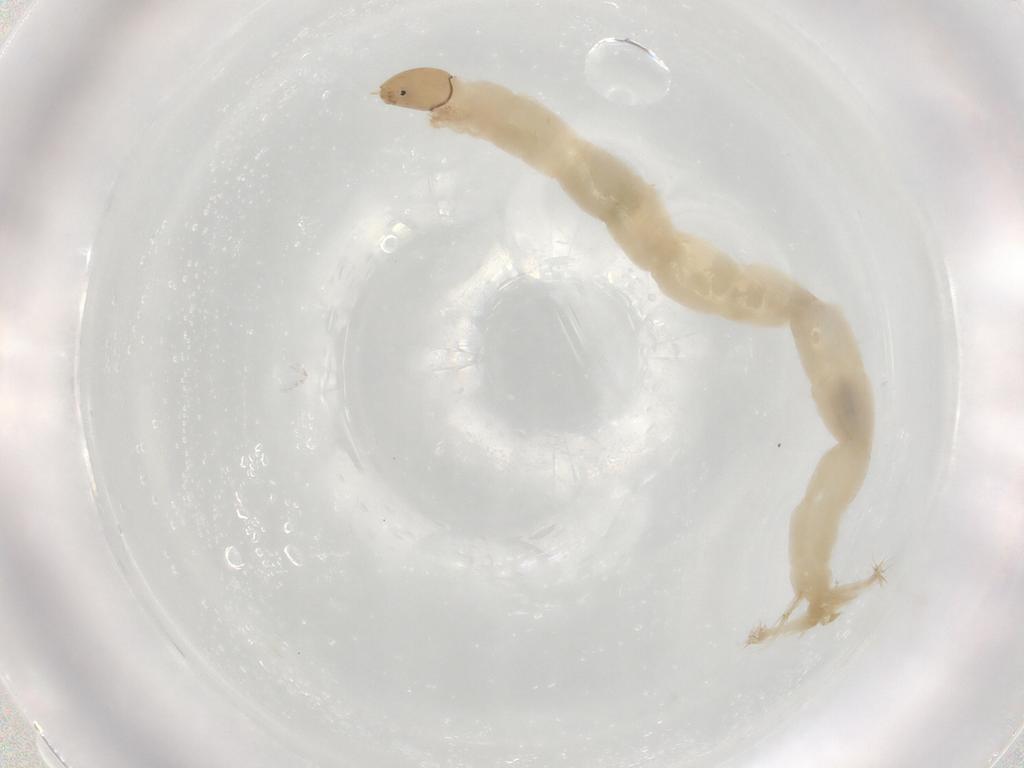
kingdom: Animalia
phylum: Arthropoda
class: Insecta
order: Diptera
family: Chironomidae
